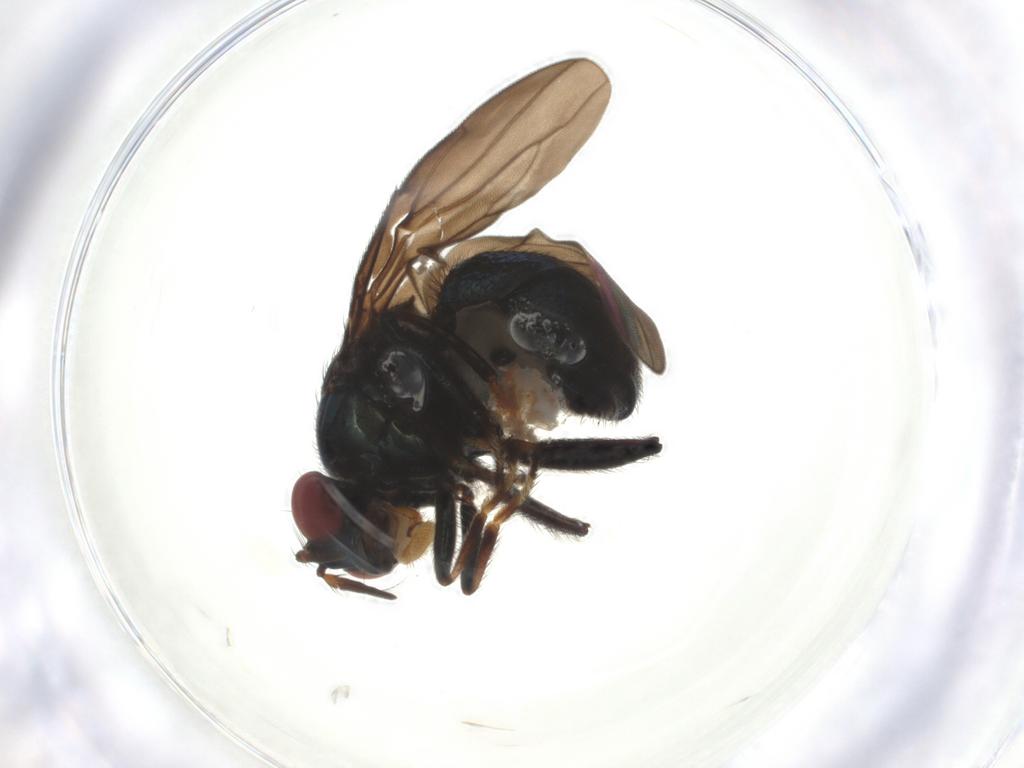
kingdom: Animalia
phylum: Arthropoda
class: Insecta
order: Diptera
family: Ephydridae
